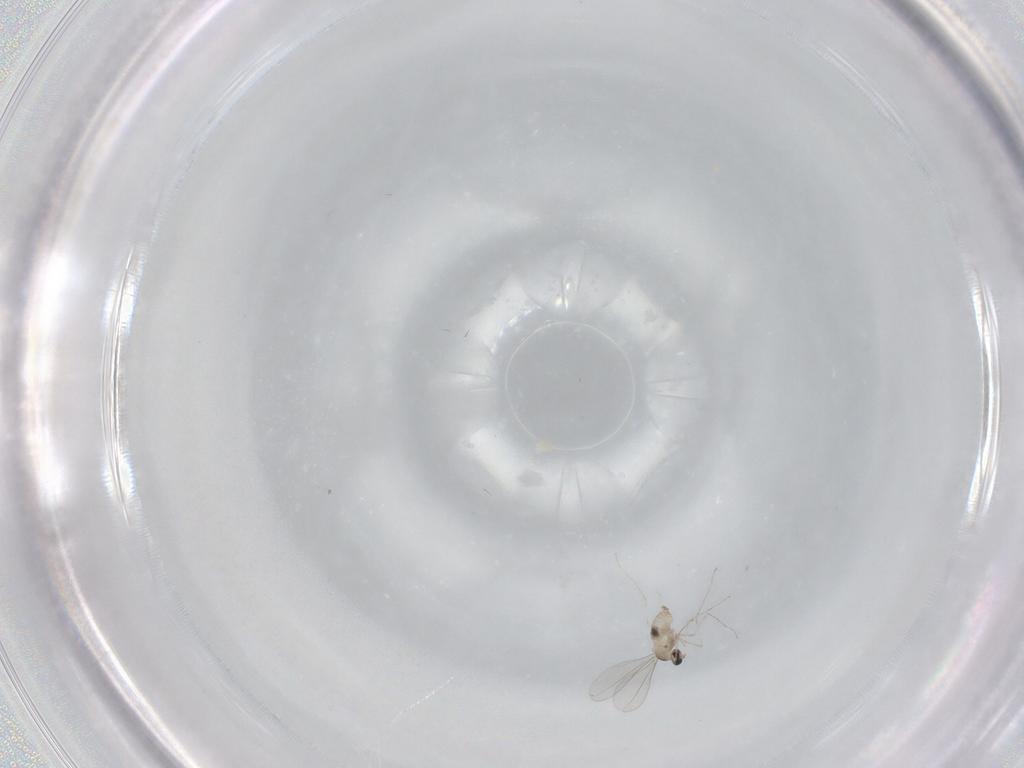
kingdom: Animalia
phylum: Arthropoda
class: Insecta
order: Diptera
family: Cecidomyiidae
